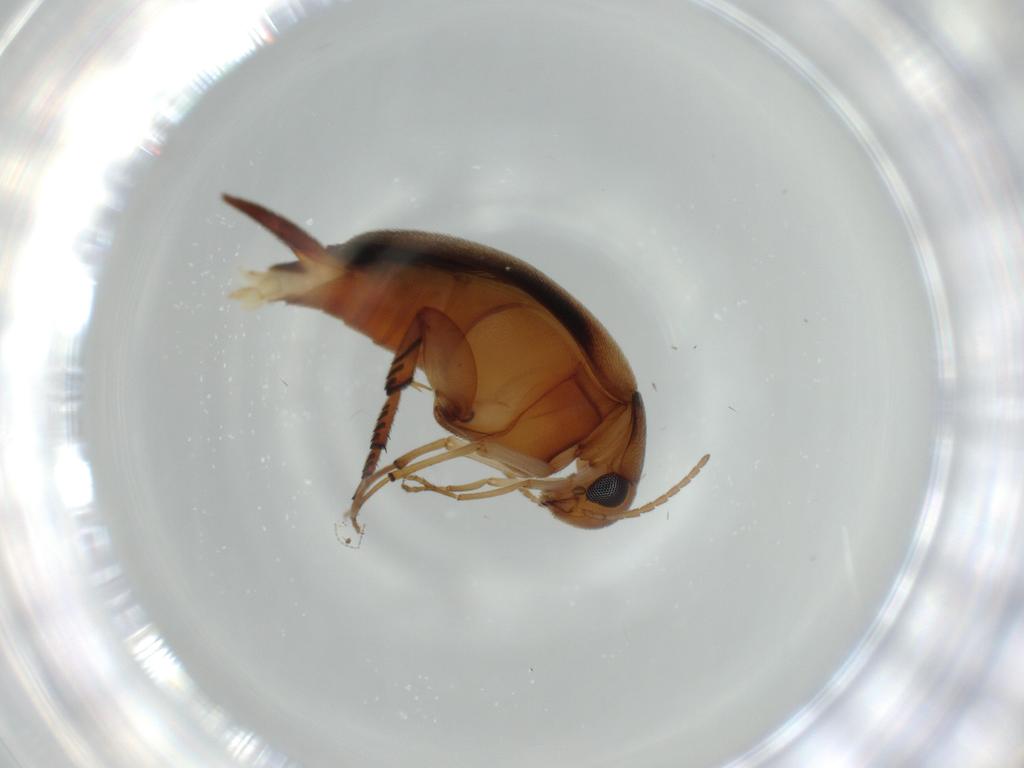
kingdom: Animalia
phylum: Arthropoda
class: Insecta
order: Coleoptera
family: Mordellidae
